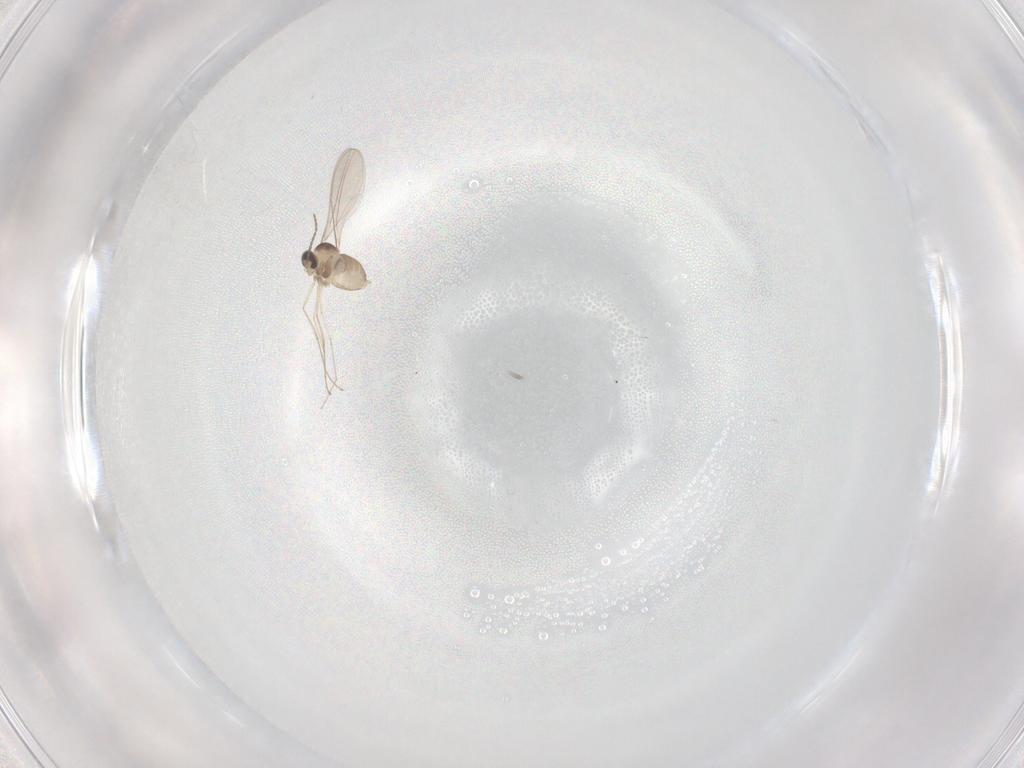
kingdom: Animalia
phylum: Arthropoda
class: Insecta
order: Diptera
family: Cecidomyiidae
